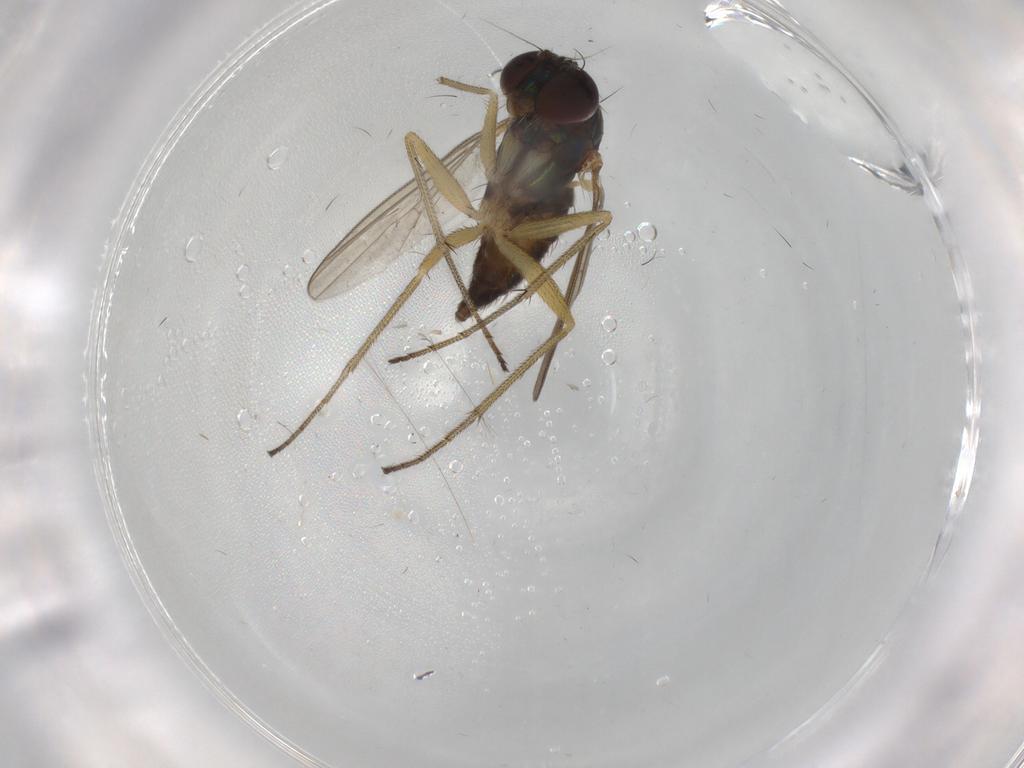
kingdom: Animalia
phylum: Arthropoda
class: Insecta
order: Diptera
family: Dolichopodidae
